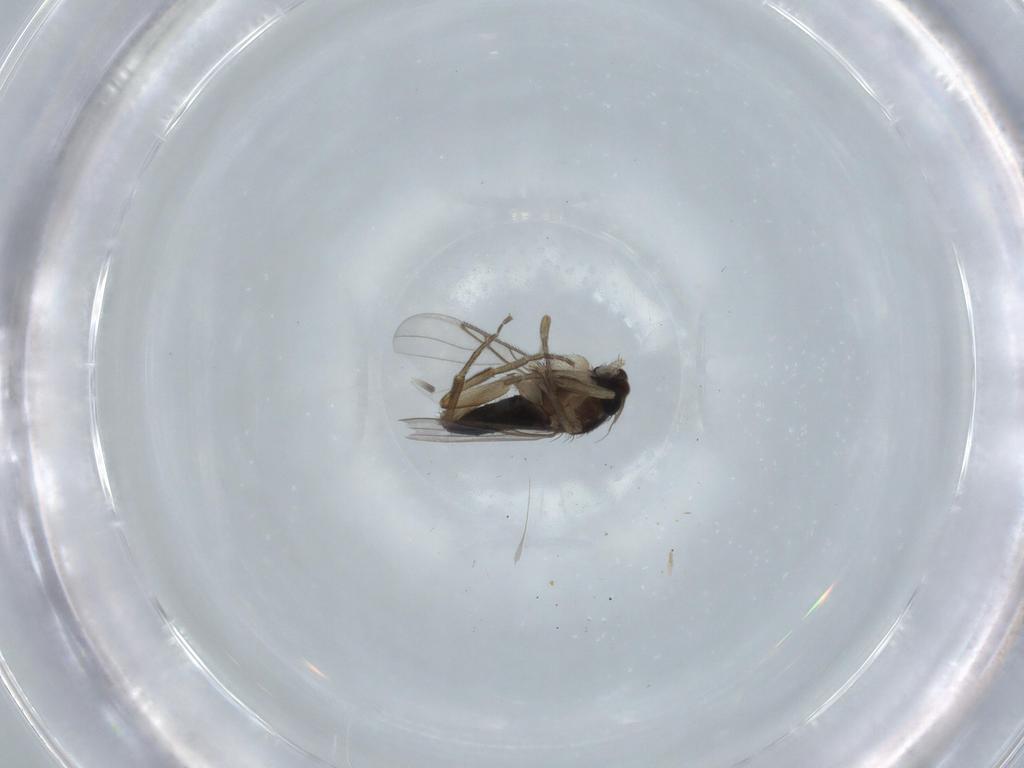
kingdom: Animalia
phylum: Arthropoda
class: Insecta
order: Diptera
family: Phoridae
